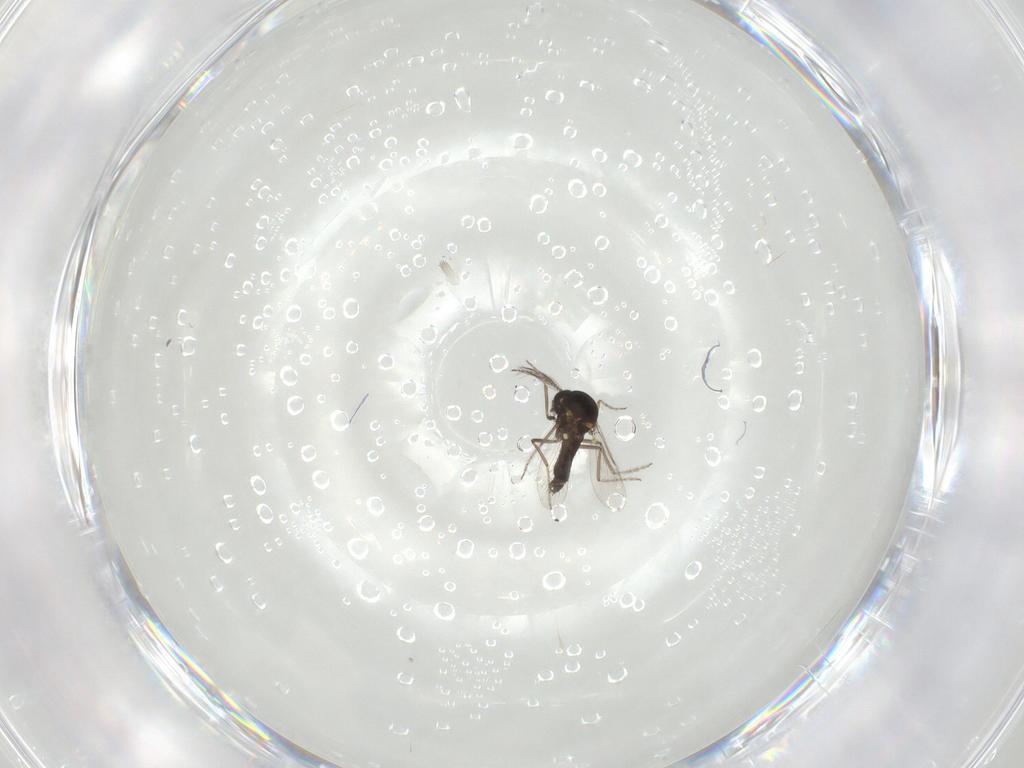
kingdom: Animalia
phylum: Arthropoda
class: Insecta
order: Diptera
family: Ceratopogonidae
